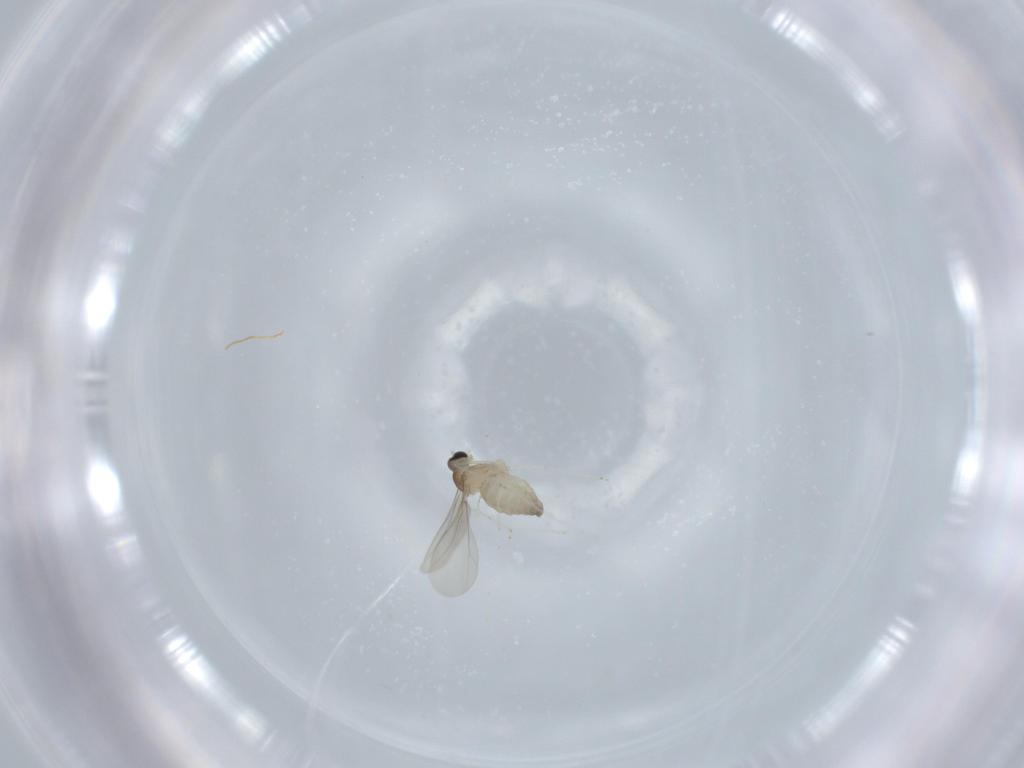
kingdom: Animalia
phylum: Arthropoda
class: Insecta
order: Diptera
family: Cecidomyiidae
